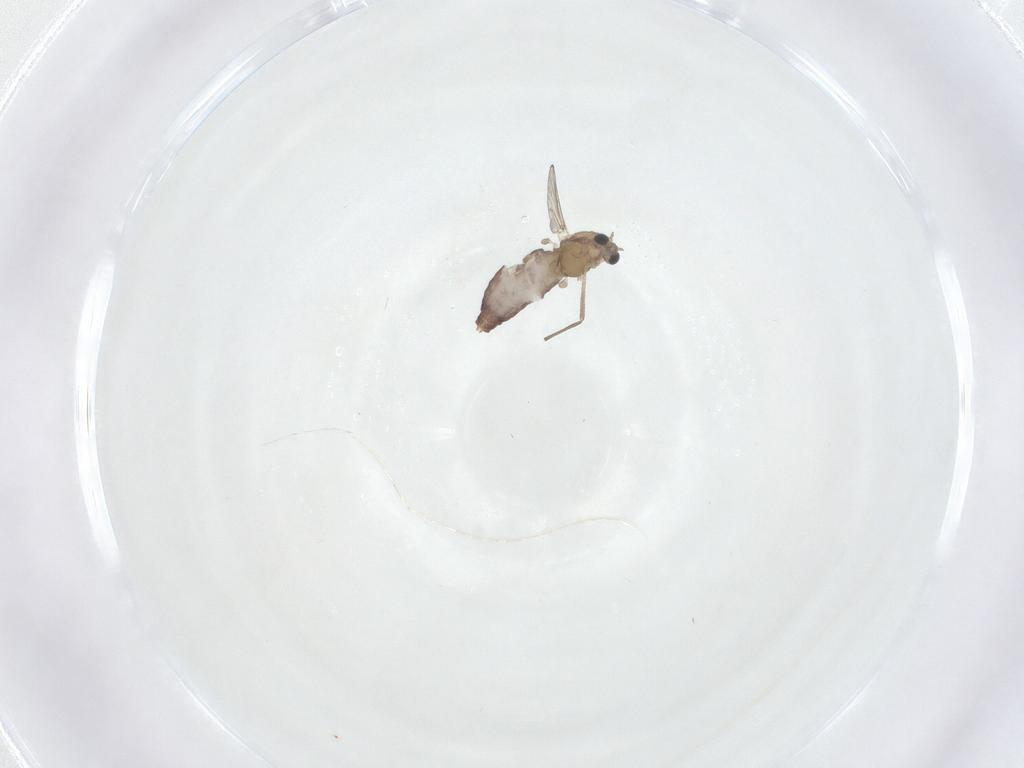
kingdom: Animalia
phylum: Arthropoda
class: Insecta
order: Diptera
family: Chironomidae
